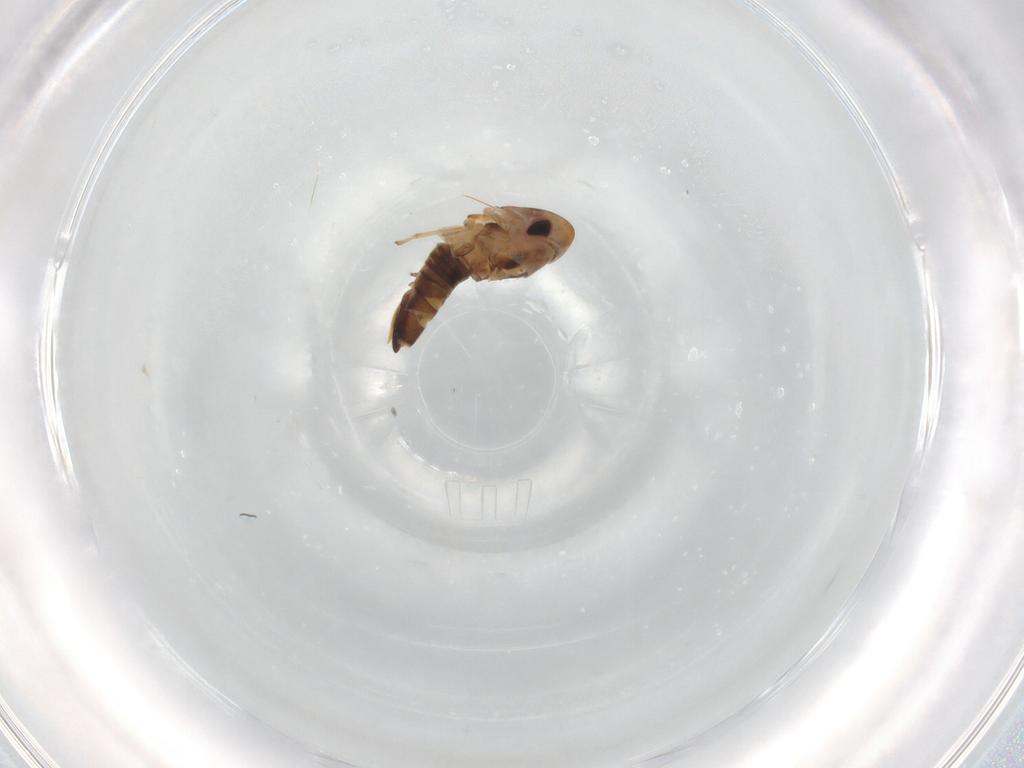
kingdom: Animalia
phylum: Arthropoda
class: Insecta
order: Hemiptera
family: Cicadellidae
